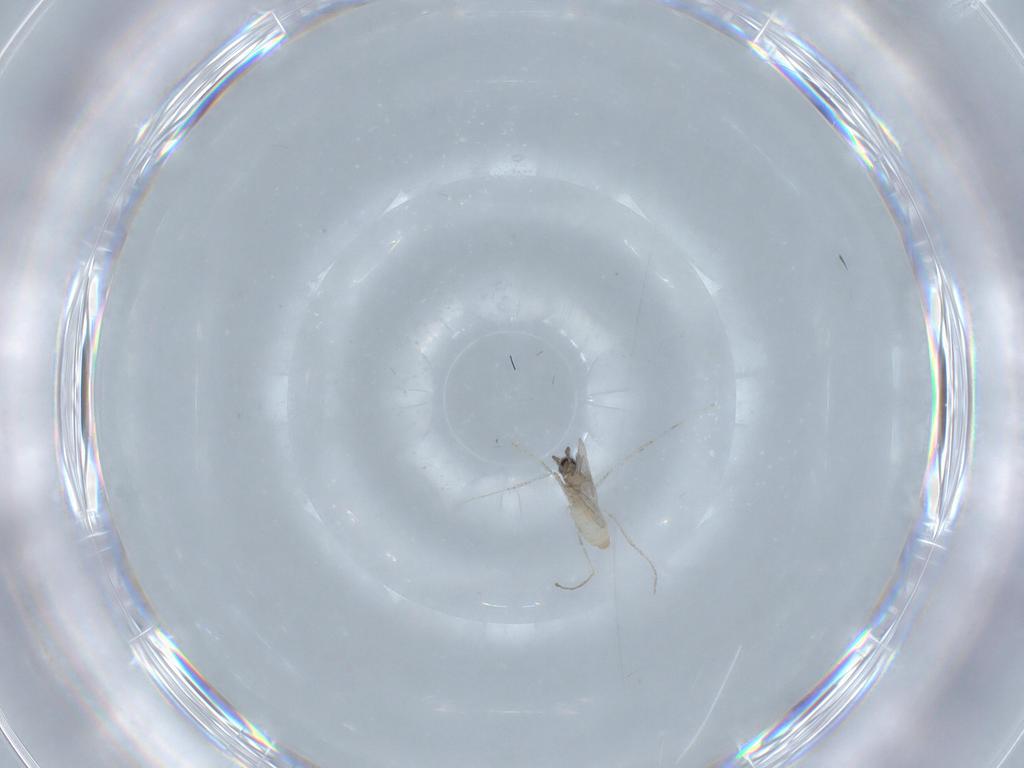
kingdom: Animalia
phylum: Arthropoda
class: Insecta
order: Diptera
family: Cecidomyiidae
